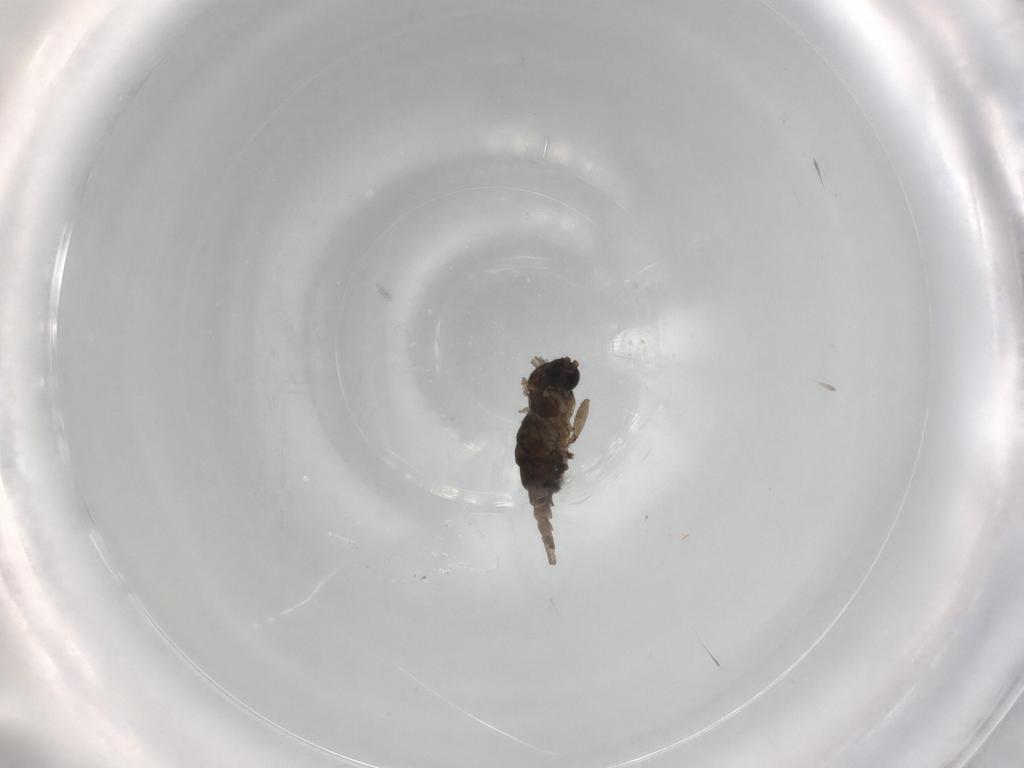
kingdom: Animalia
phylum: Arthropoda
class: Insecta
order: Diptera
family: Sciaridae
